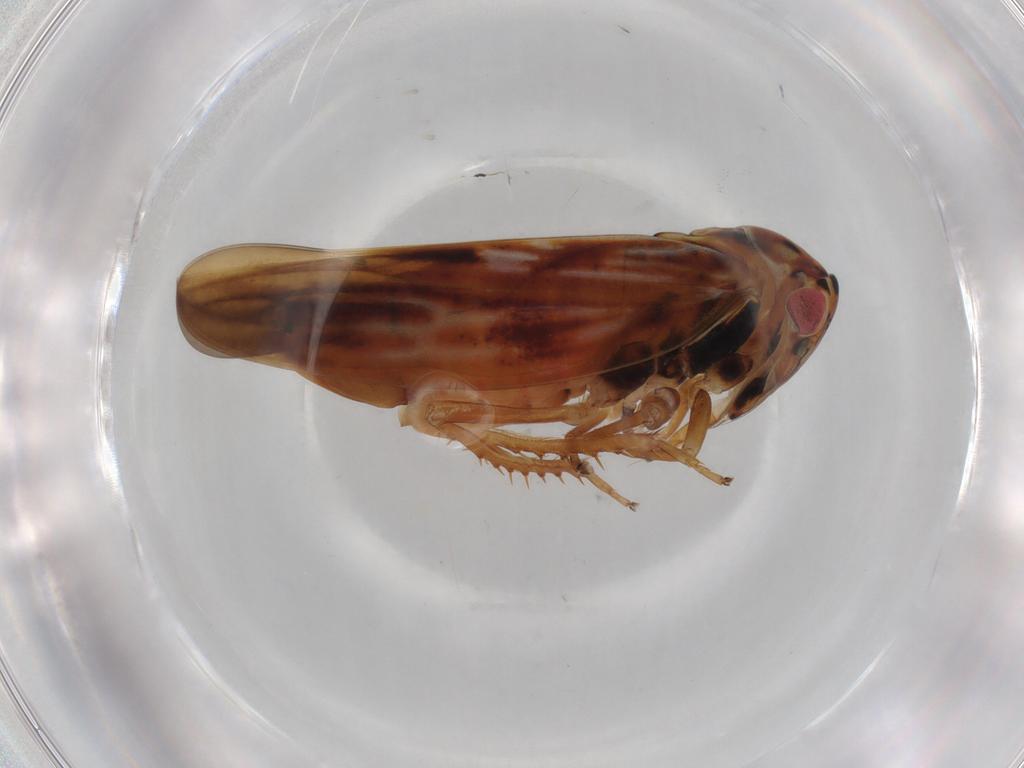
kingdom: Animalia
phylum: Arthropoda
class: Insecta
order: Hemiptera
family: Cicadellidae
